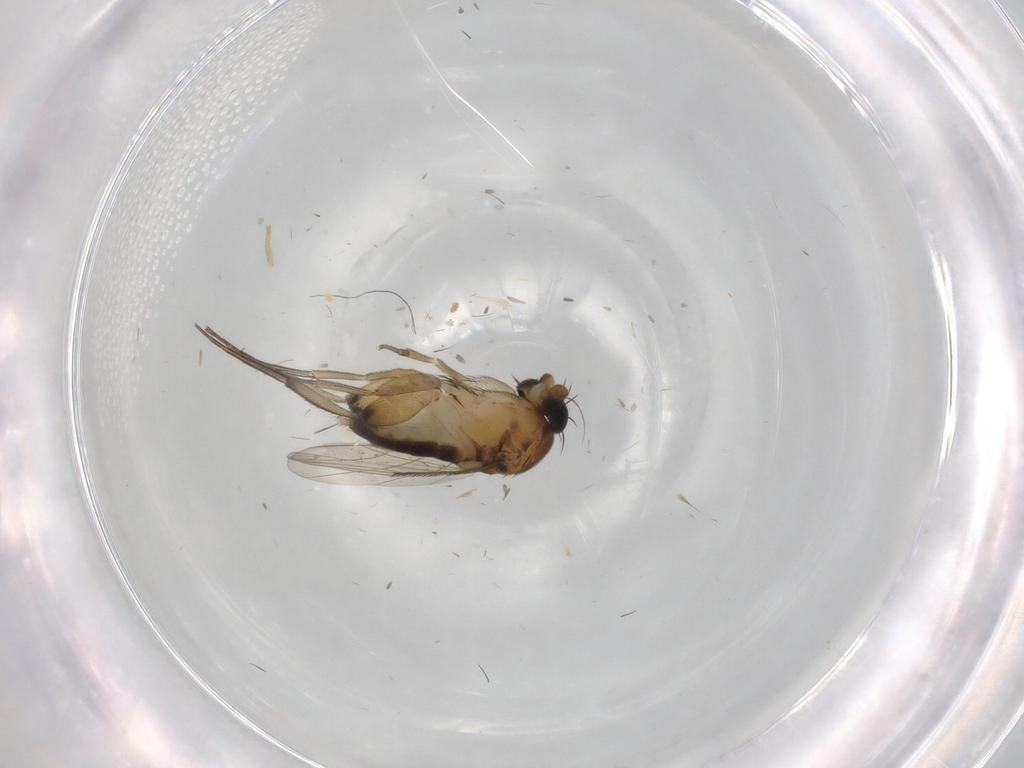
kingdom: Animalia
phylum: Arthropoda
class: Insecta
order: Diptera
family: Phoridae
